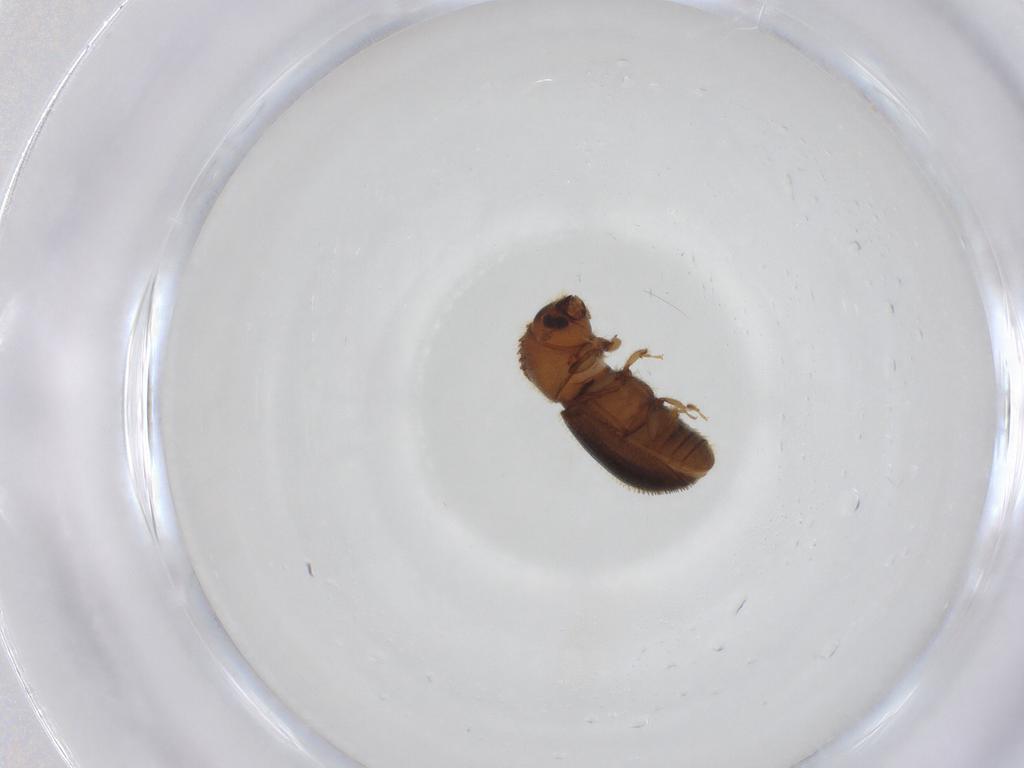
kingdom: Animalia
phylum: Arthropoda
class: Insecta
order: Coleoptera
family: Curculionidae
